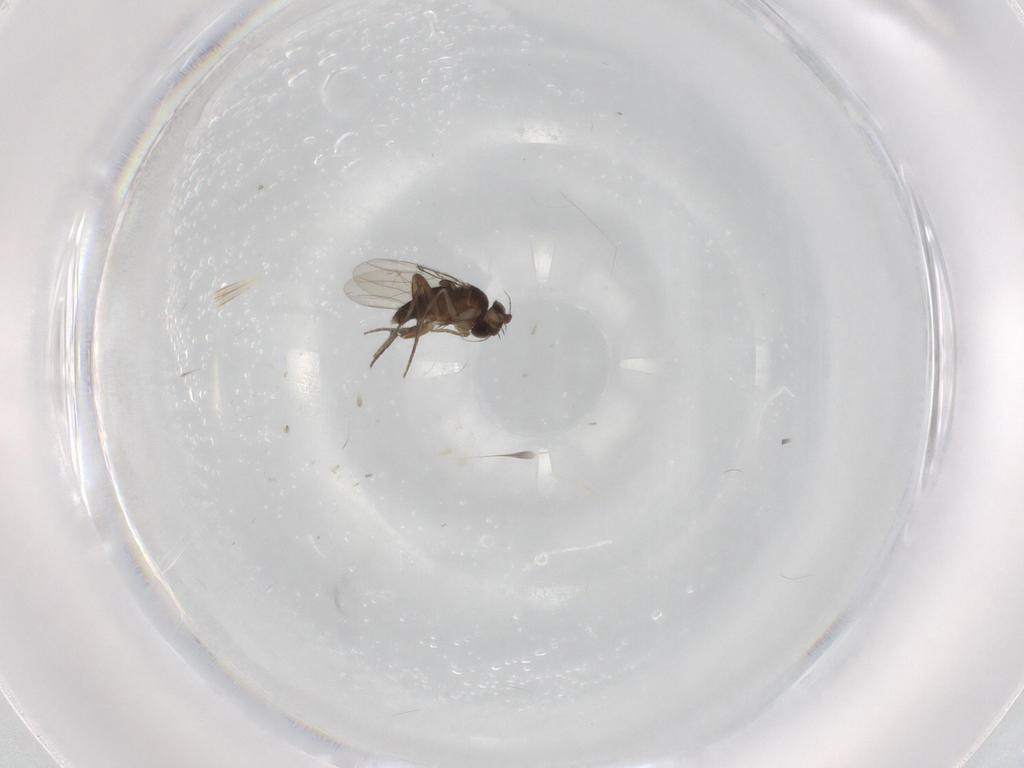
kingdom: Animalia
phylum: Arthropoda
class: Insecta
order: Diptera
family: Phoridae
